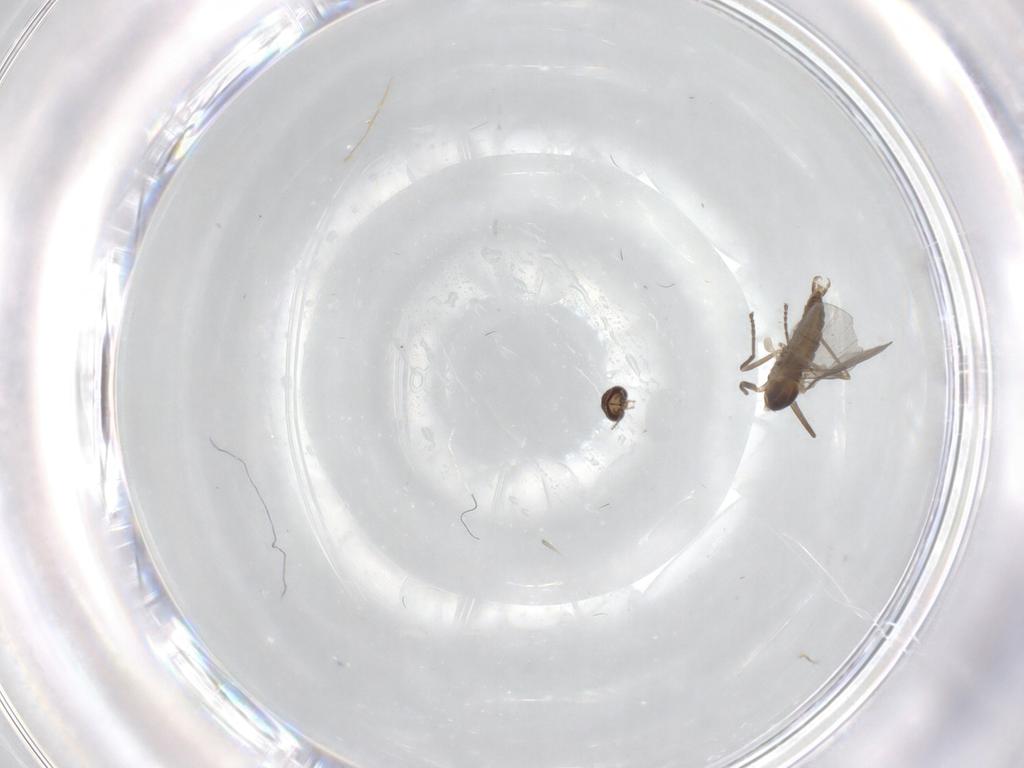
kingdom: Animalia
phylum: Arthropoda
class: Insecta
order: Diptera
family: Cecidomyiidae
